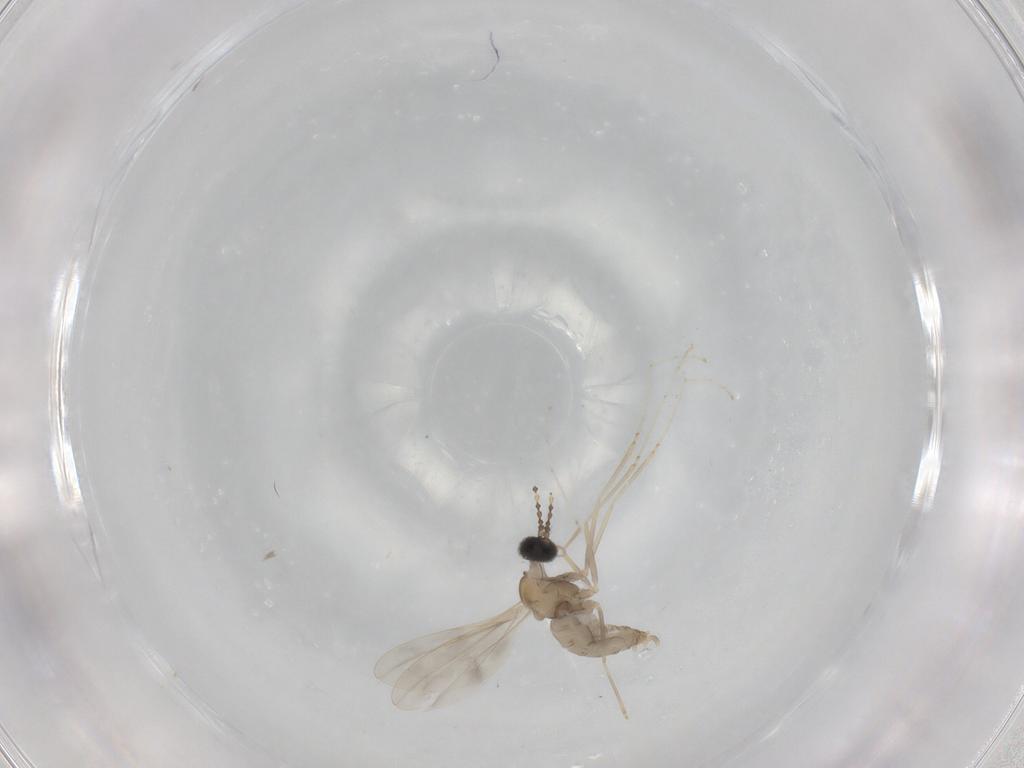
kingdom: Animalia
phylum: Arthropoda
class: Insecta
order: Diptera
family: Cecidomyiidae
